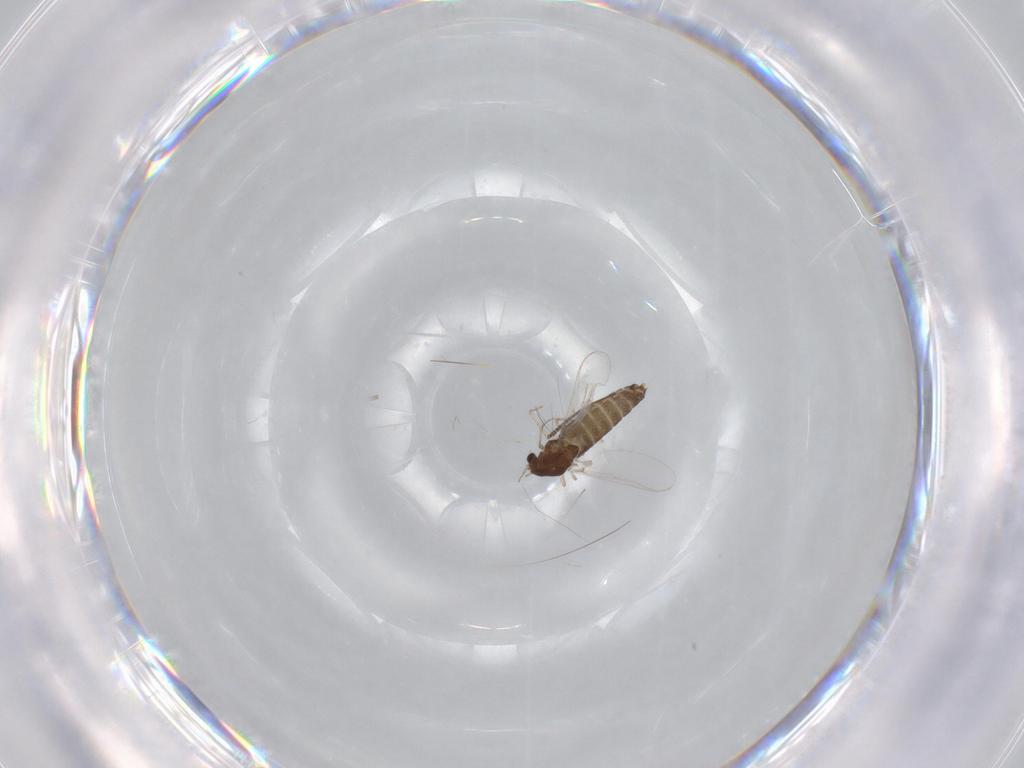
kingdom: Animalia
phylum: Arthropoda
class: Insecta
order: Diptera
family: Chironomidae
